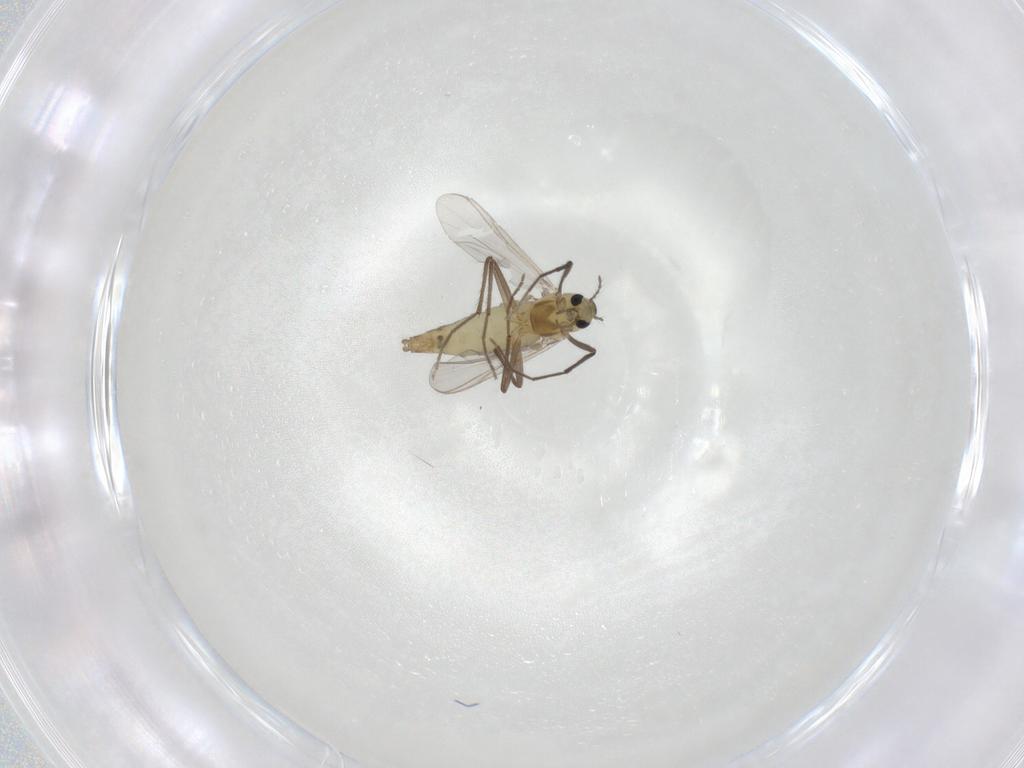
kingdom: Animalia
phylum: Arthropoda
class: Insecta
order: Diptera
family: Chironomidae
